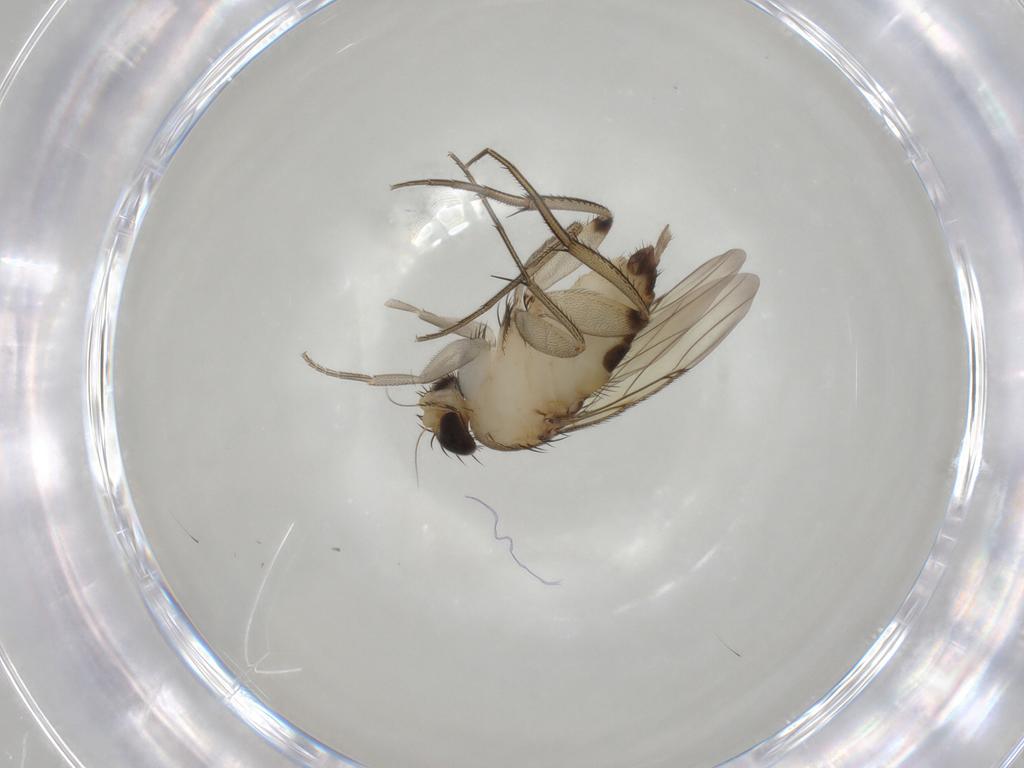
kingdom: Animalia
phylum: Arthropoda
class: Insecta
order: Diptera
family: Phoridae
